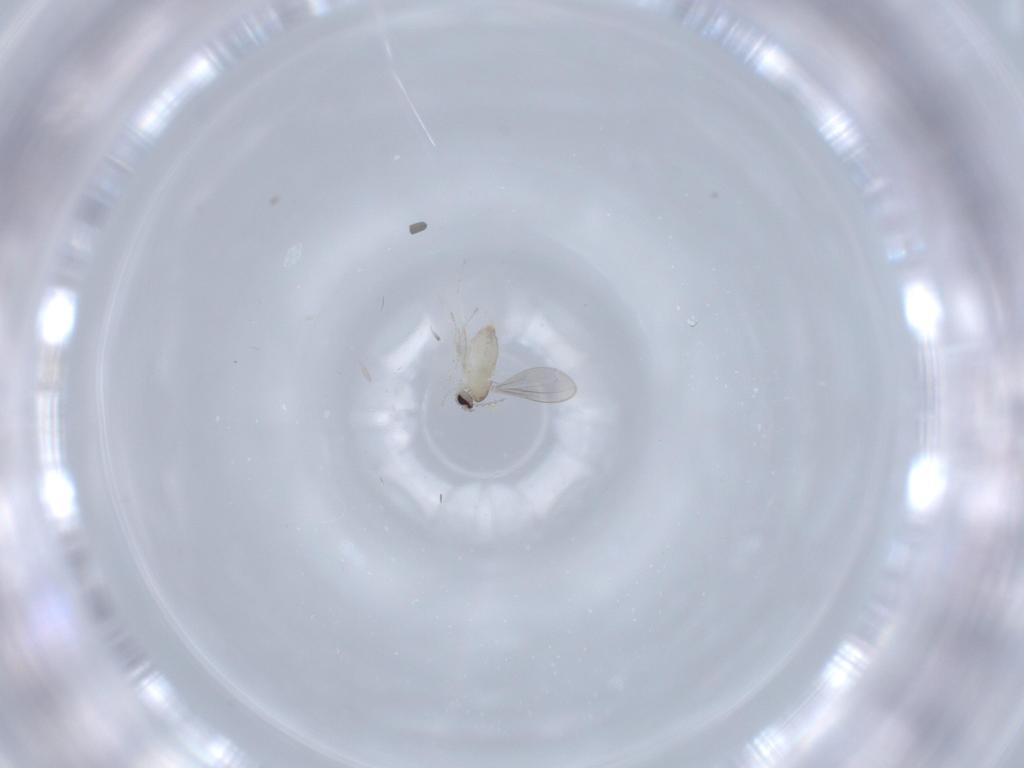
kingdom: Animalia
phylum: Arthropoda
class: Insecta
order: Diptera
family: Cecidomyiidae
